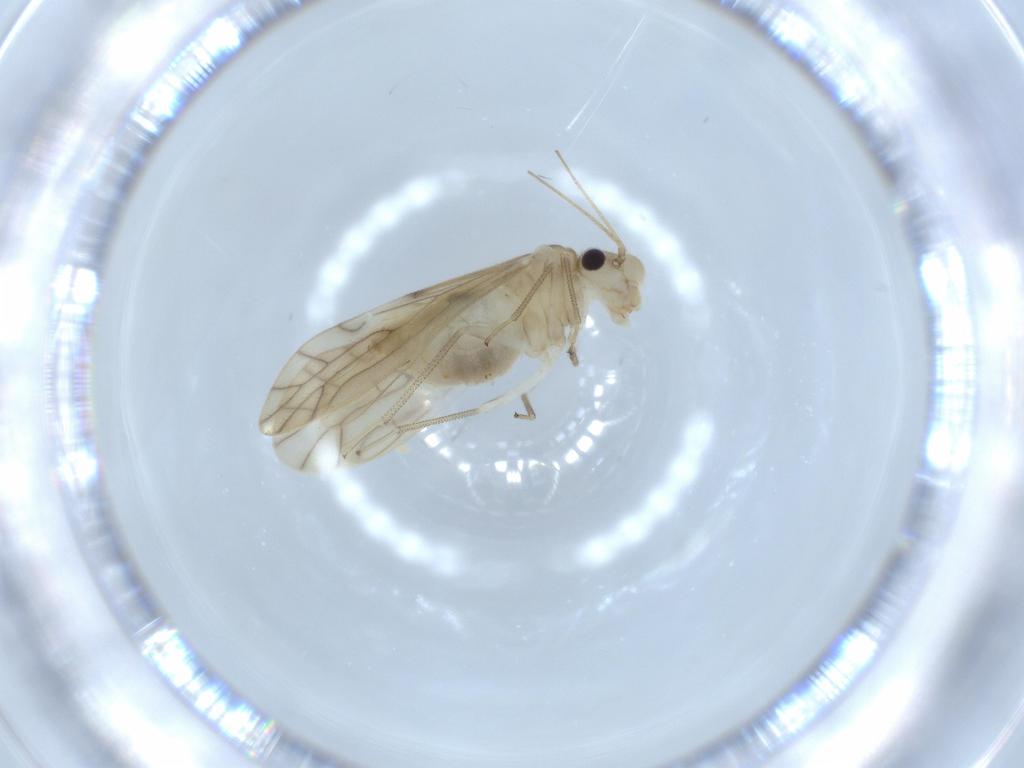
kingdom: Animalia
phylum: Arthropoda
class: Insecta
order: Psocodea
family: Caeciliusidae
